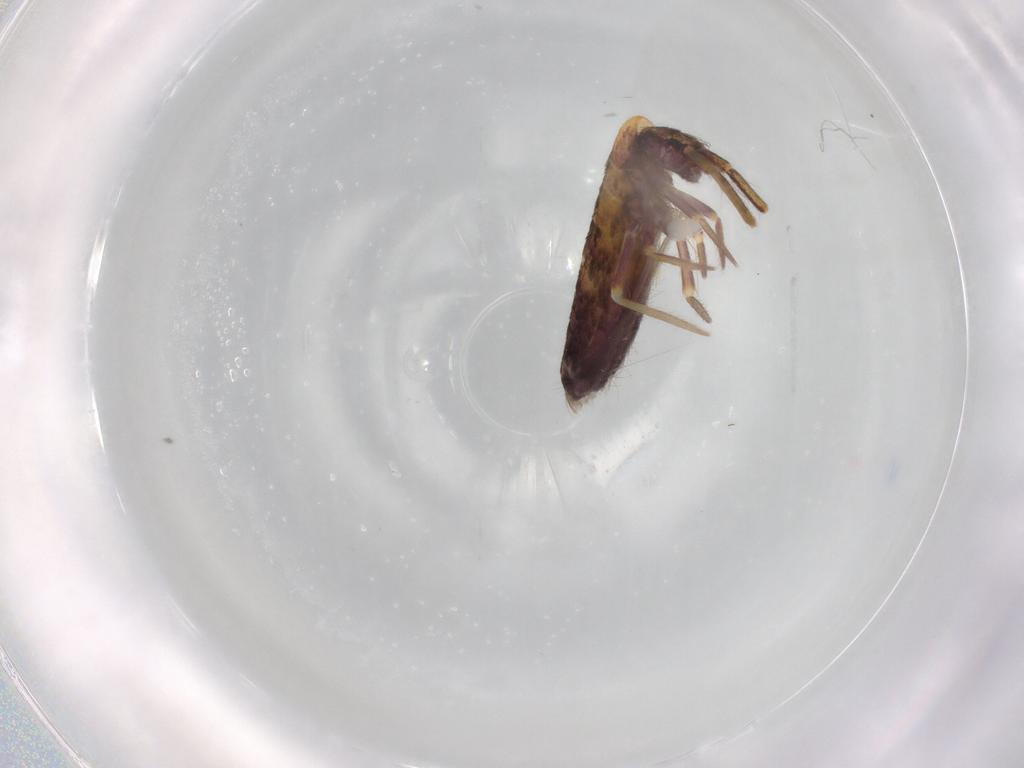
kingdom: Animalia
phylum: Arthropoda
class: Collembola
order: Entomobryomorpha
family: Entomobryidae
